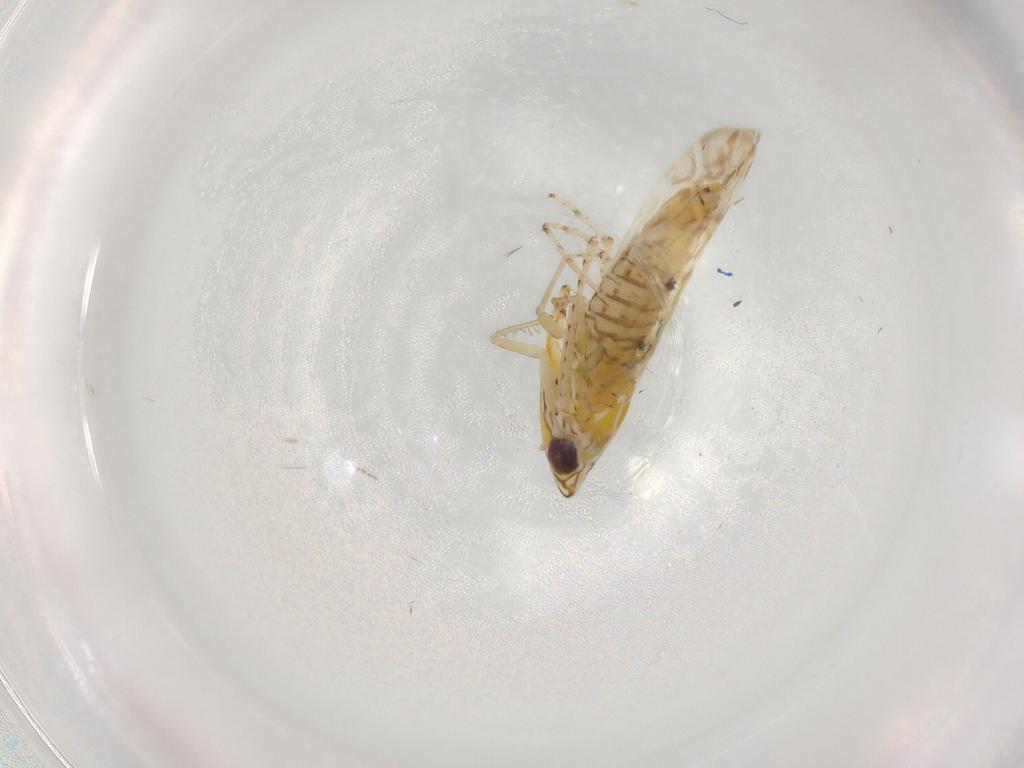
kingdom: Animalia
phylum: Arthropoda
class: Insecta
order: Hemiptera
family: Cicadellidae
